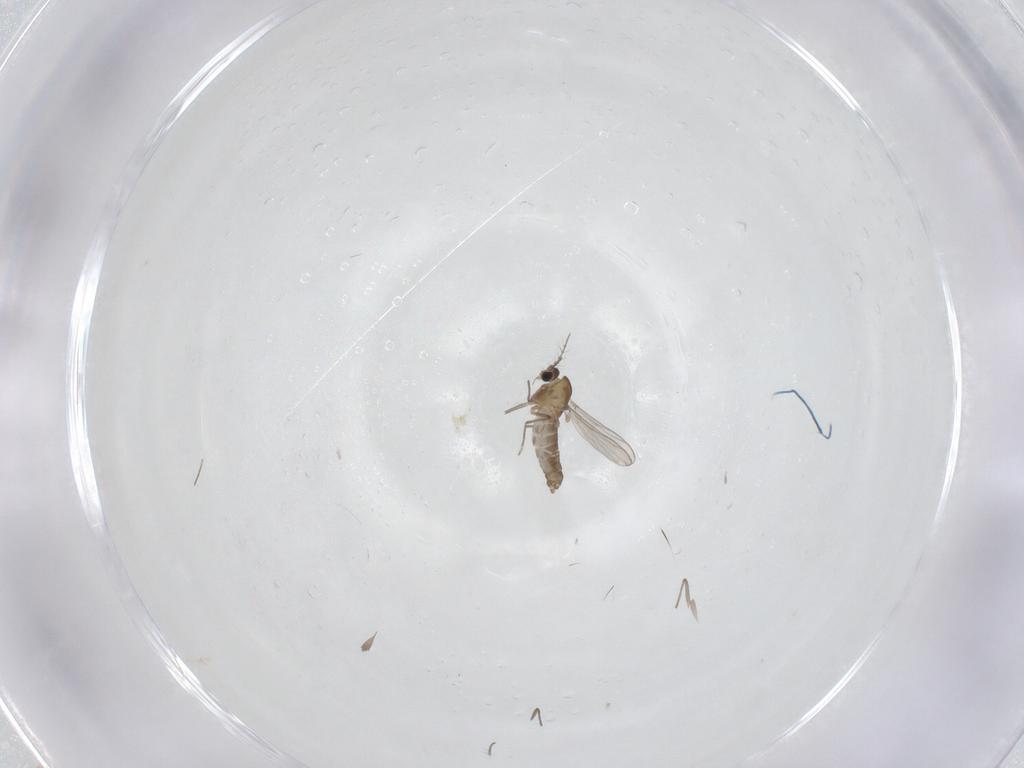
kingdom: Animalia
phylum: Arthropoda
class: Insecta
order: Diptera
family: Chironomidae
